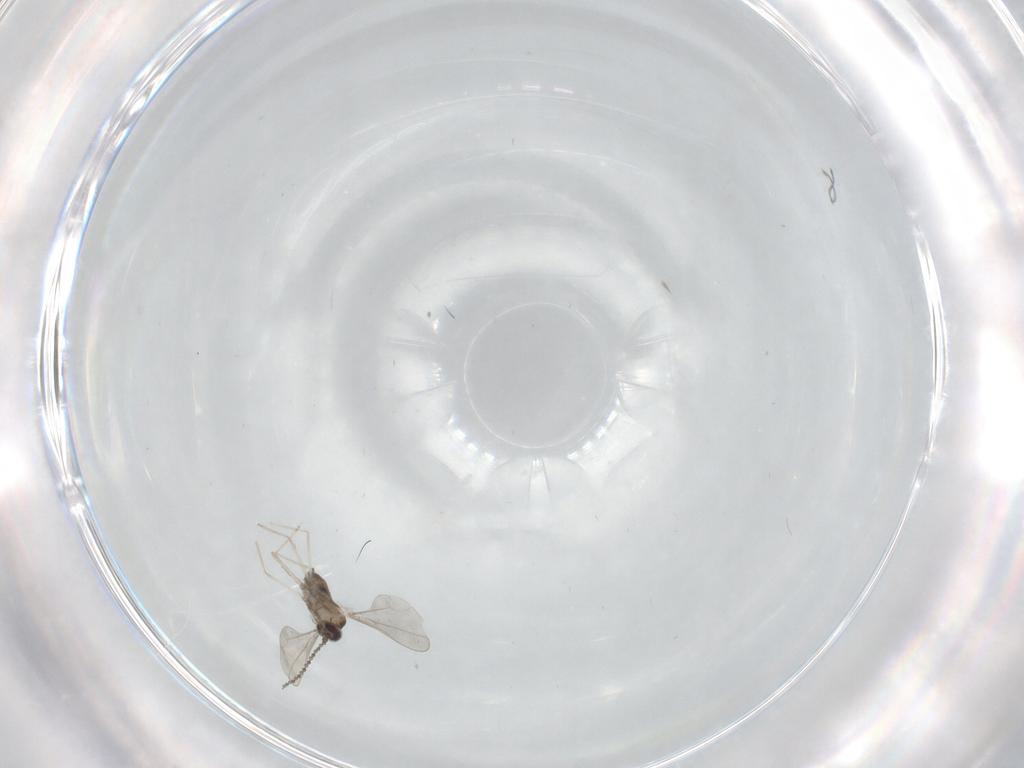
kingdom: Animalia
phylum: Arthropoda
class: Insecta
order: Diptera
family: Cecidomyiidae
